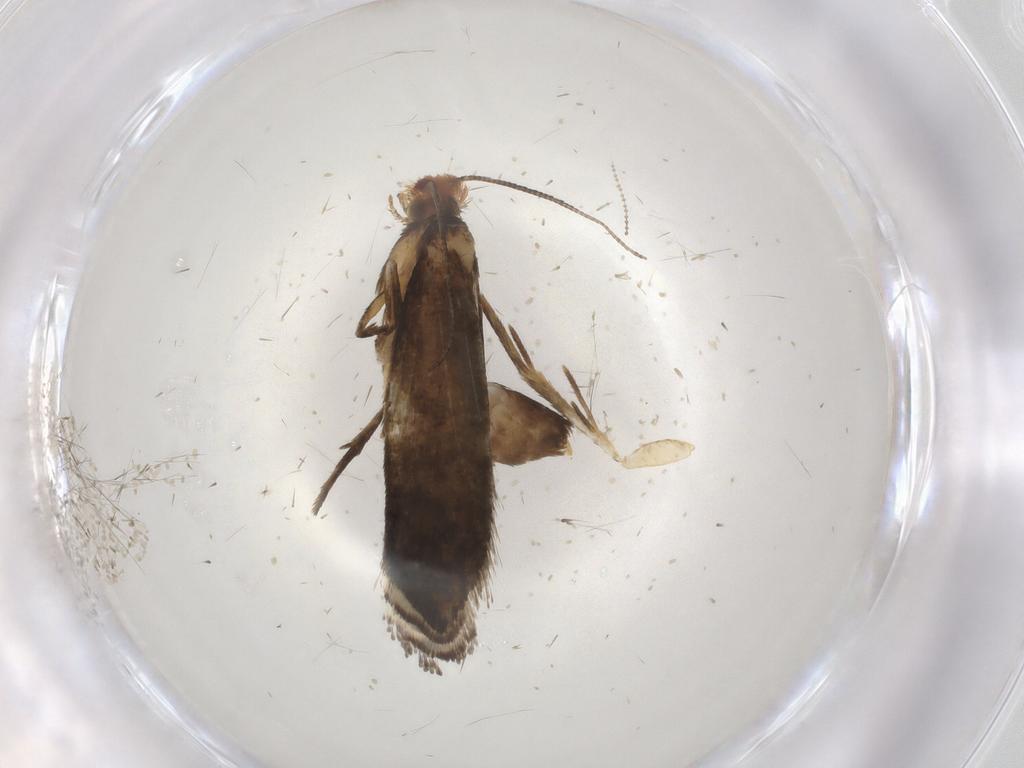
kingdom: Animalia
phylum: Arthropoda
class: Insecta
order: Lepidoptera
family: Tineidae
